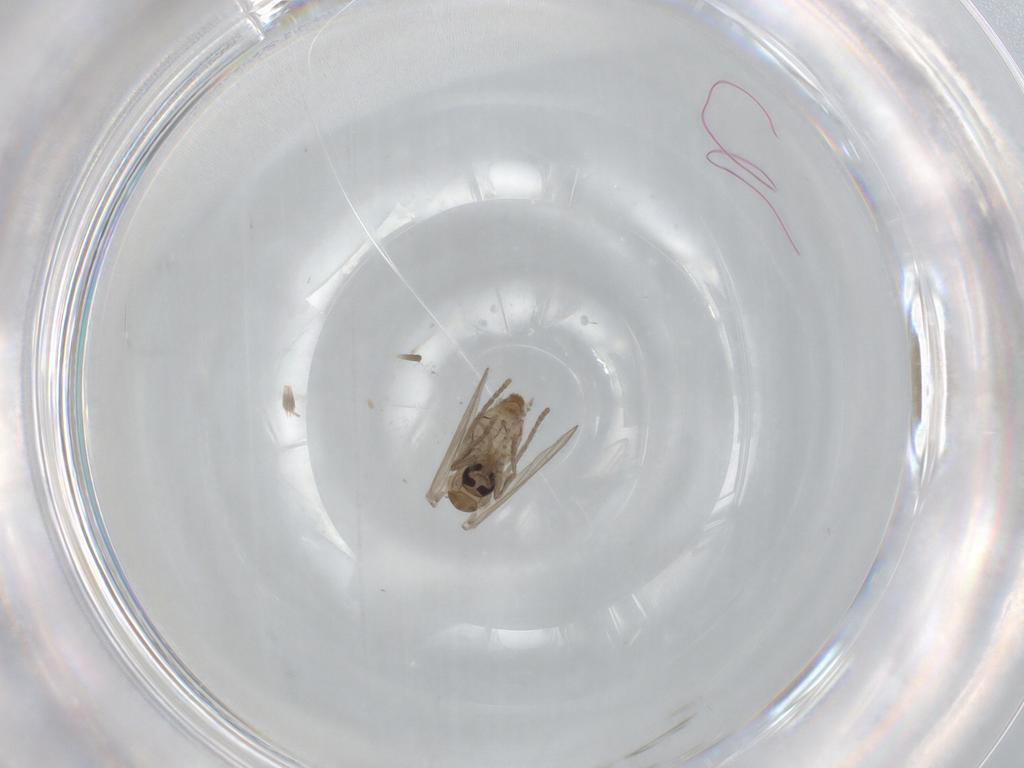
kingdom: Animalia
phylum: Arthropoda
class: Insecta
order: Diptera
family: Psychodidae
